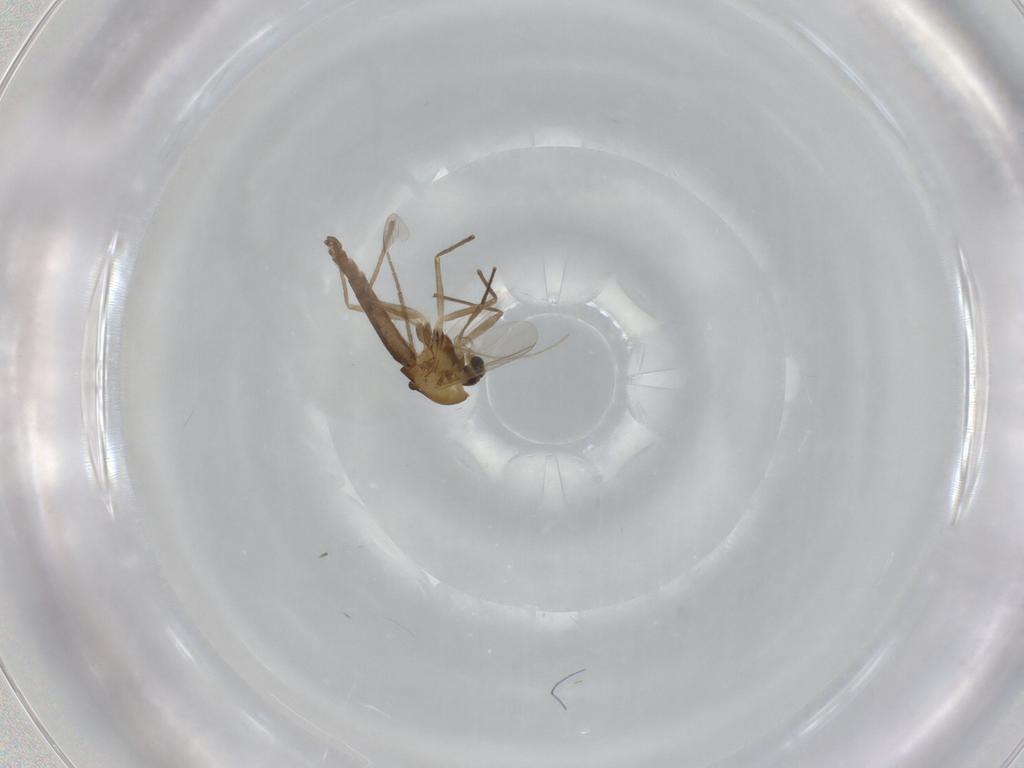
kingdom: Animalia
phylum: Arthropoda
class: Insecta
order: Diptera
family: Chironomidae
